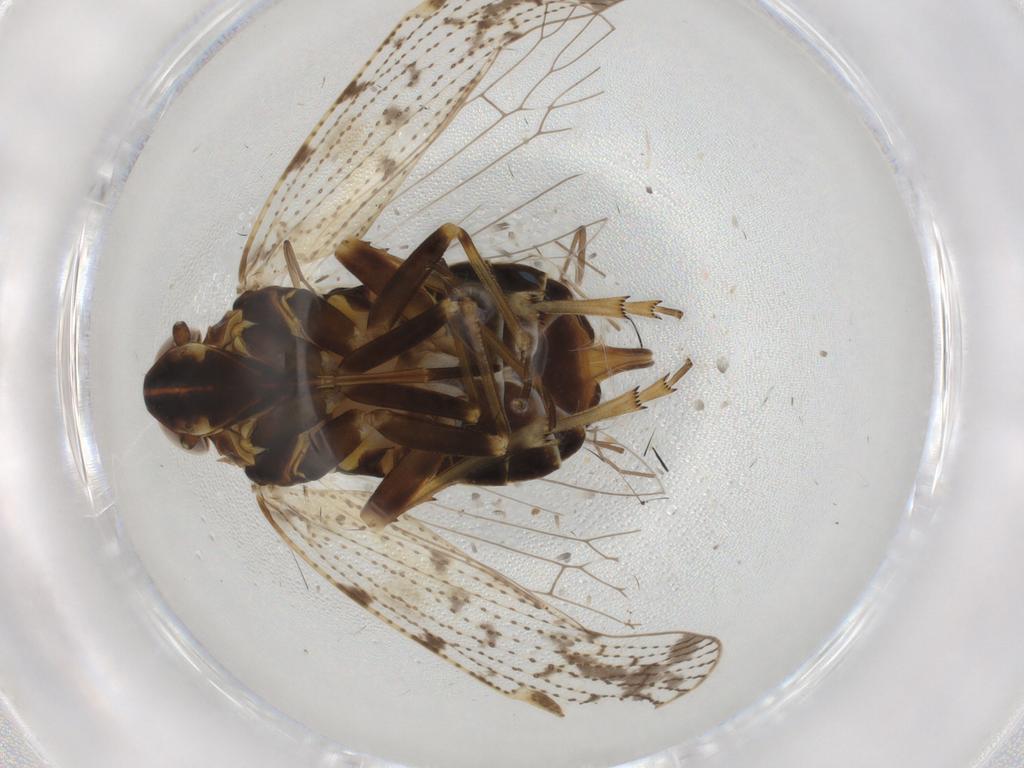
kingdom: Animalia
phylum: Arthropoda
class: Insecta
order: Hemiptera
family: Cixiidae
